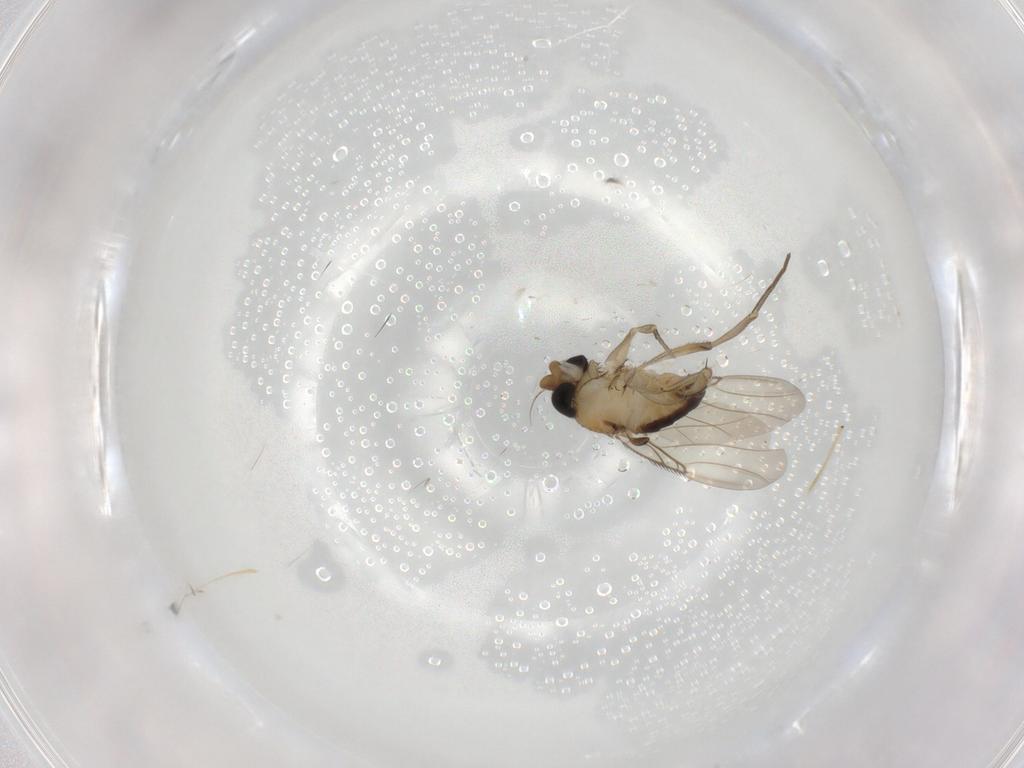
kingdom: Animalia
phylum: Arthropoda
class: Insecta
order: Diptera
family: Phoridae
